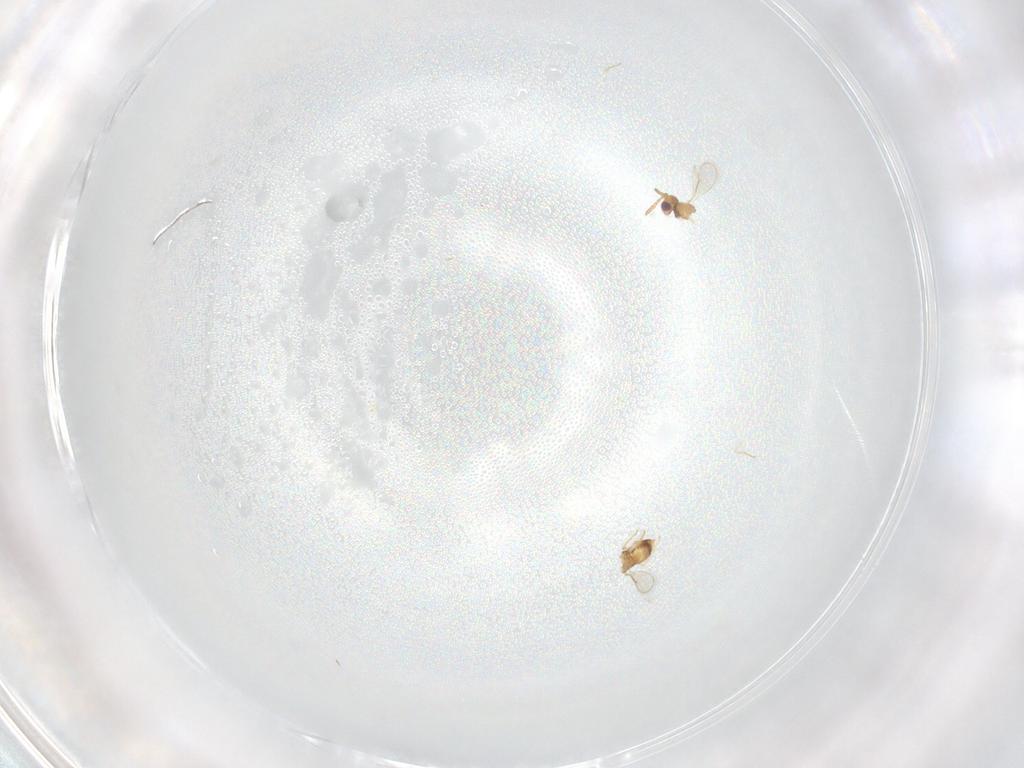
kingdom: Animalia
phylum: Arthropoda
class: Insecta
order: Hymenoptera
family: Aphelinidae
